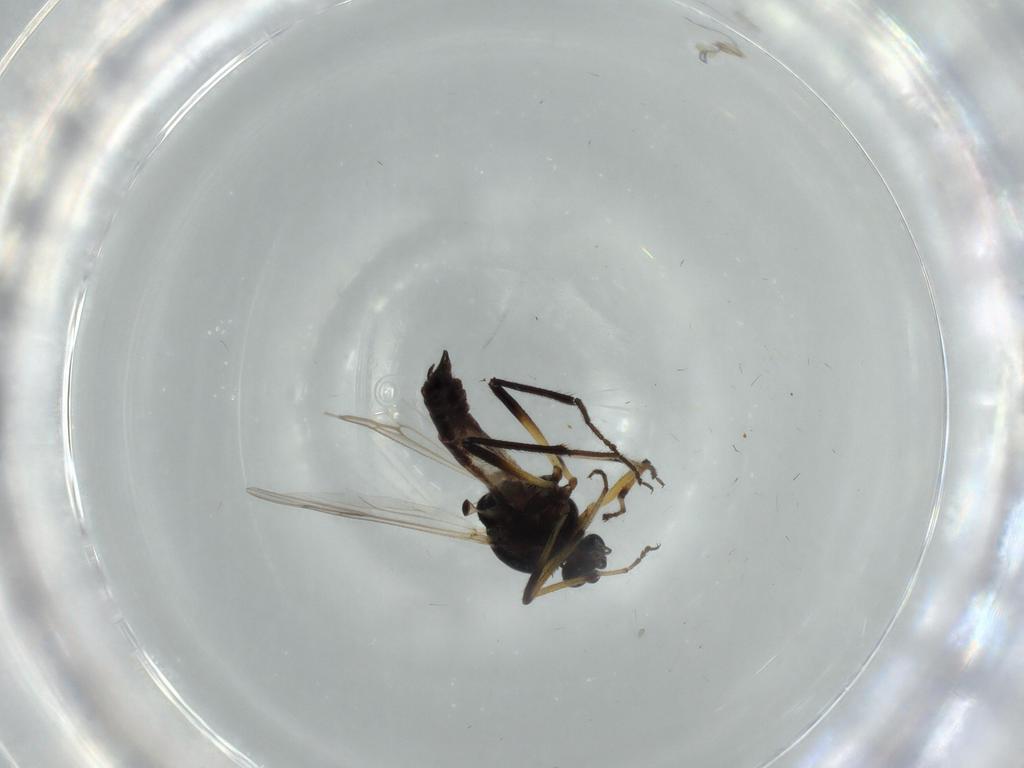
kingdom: Animalia
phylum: Arthropoda
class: Insecta
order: Diptera
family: Ceratopogonidae
